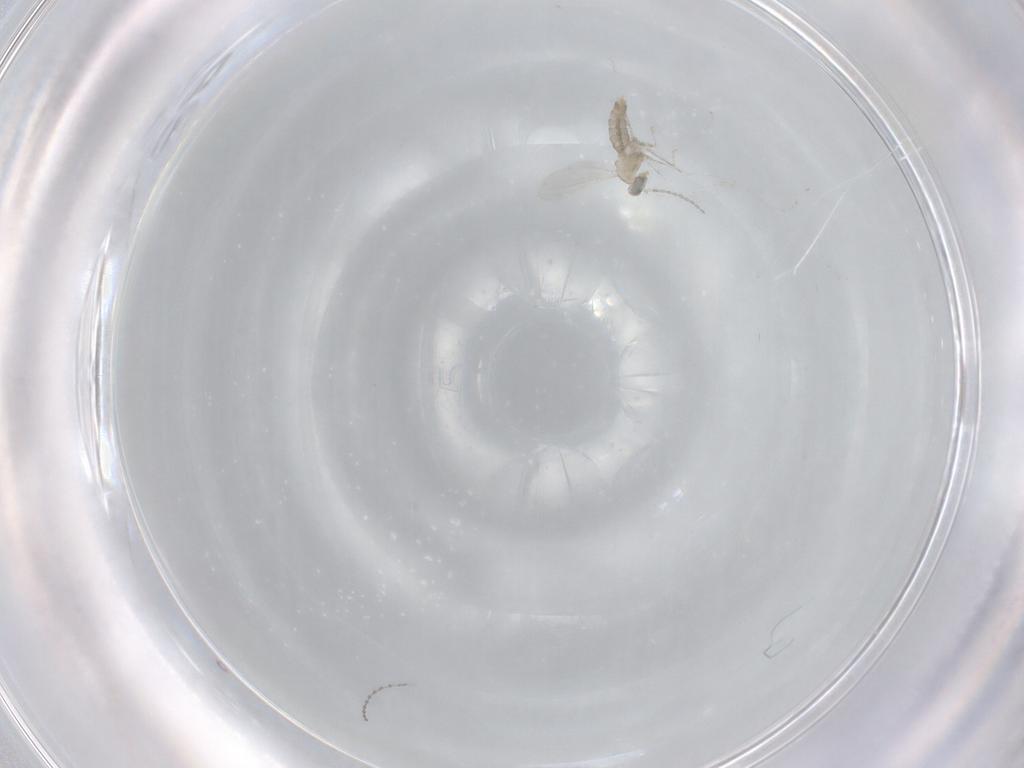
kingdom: Animalia
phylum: Arthropoda
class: Insecta
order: Diptera
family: Cecidomyiidae
